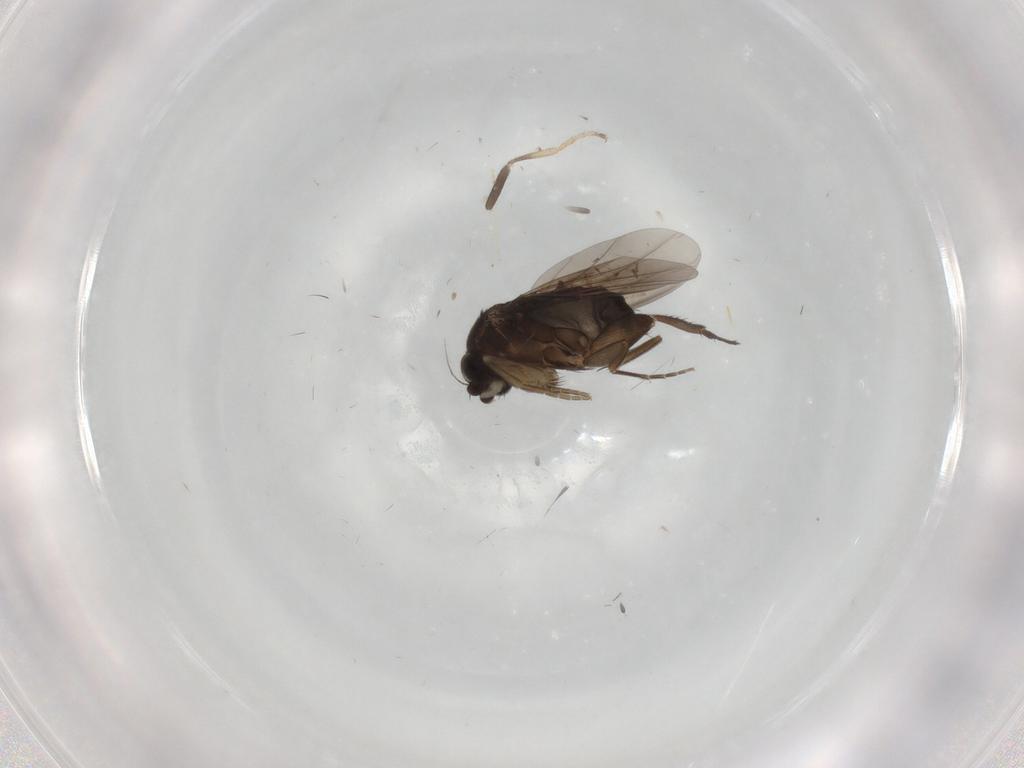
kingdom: Animalia
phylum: Arthropoda
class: Insecta
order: Diptera
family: Phoridae
